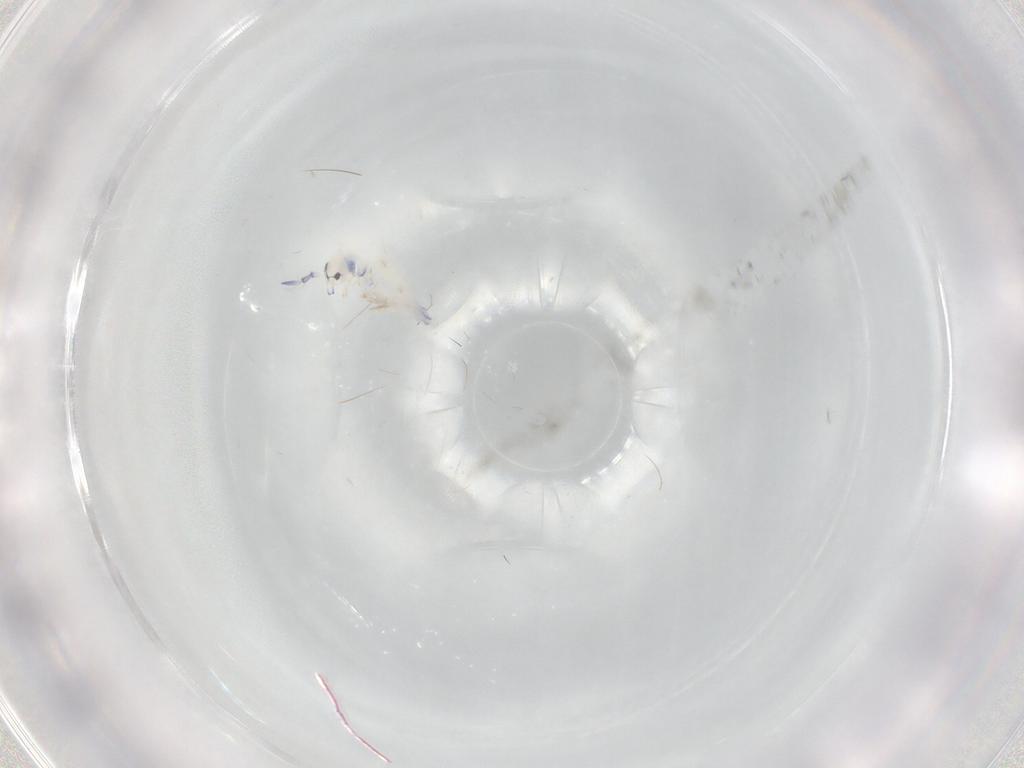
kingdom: Animalia
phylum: Arthropoda
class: Collembola
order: Entomobryomorpha
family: Entomobryidae
